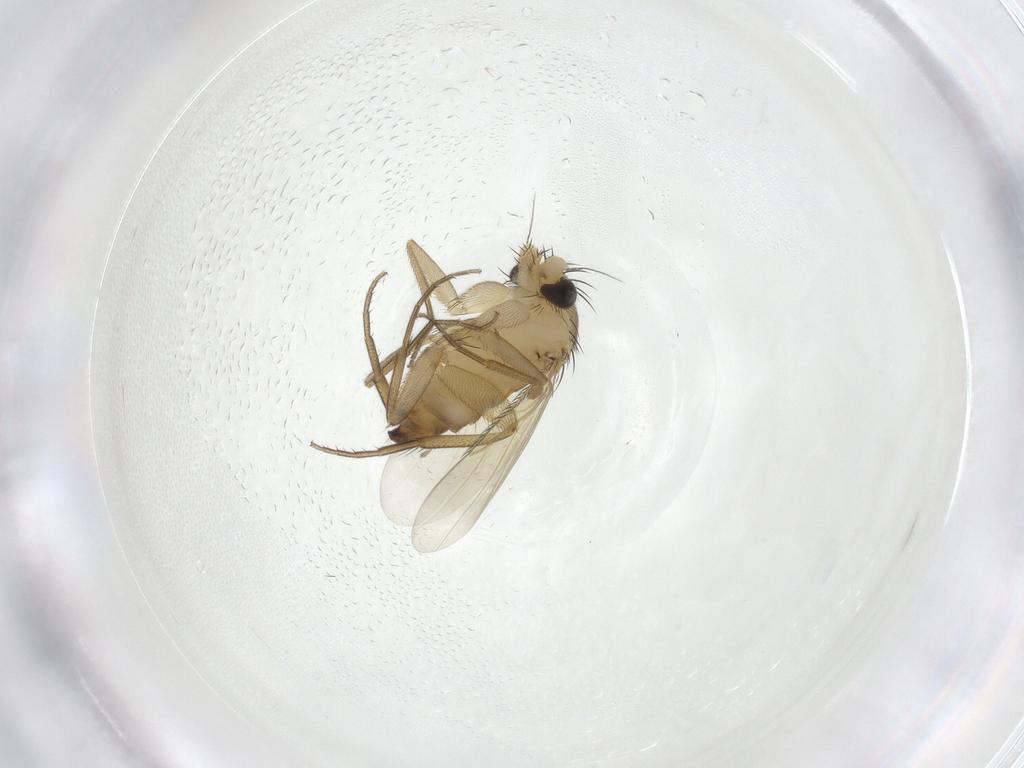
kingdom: Animalia
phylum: Arthropoda
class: Insecta
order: Diptera
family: Phoridae
